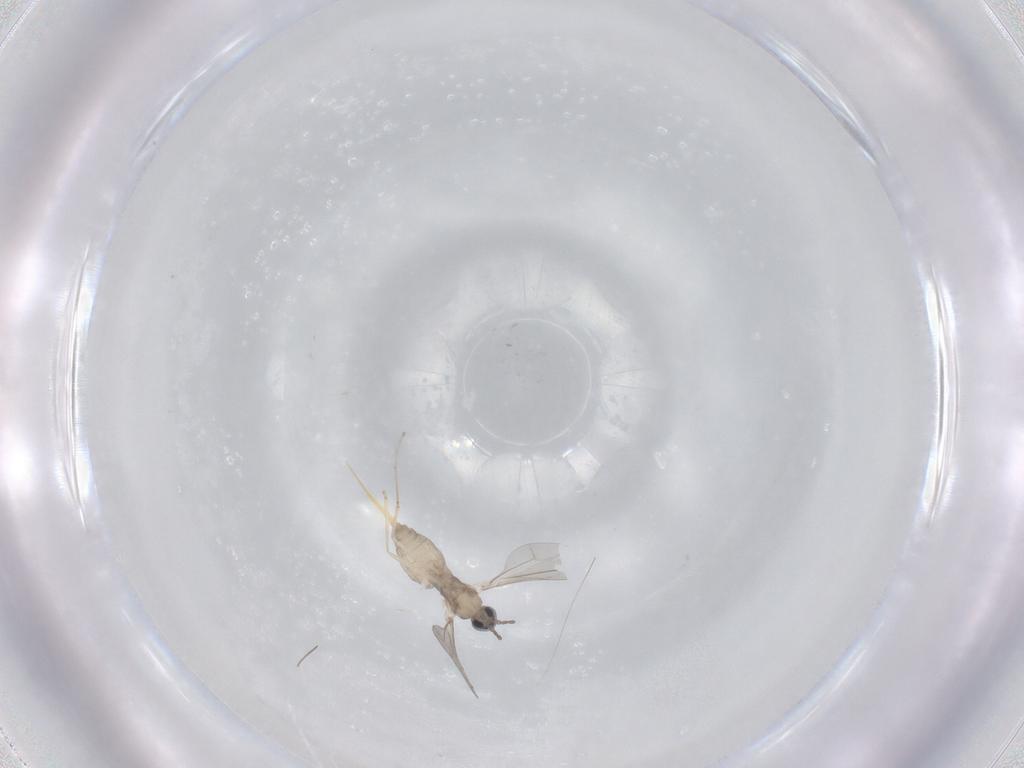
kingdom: Animalia
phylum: Arthropoda
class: Insecta
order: Diptera
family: Cecidomyiidae
